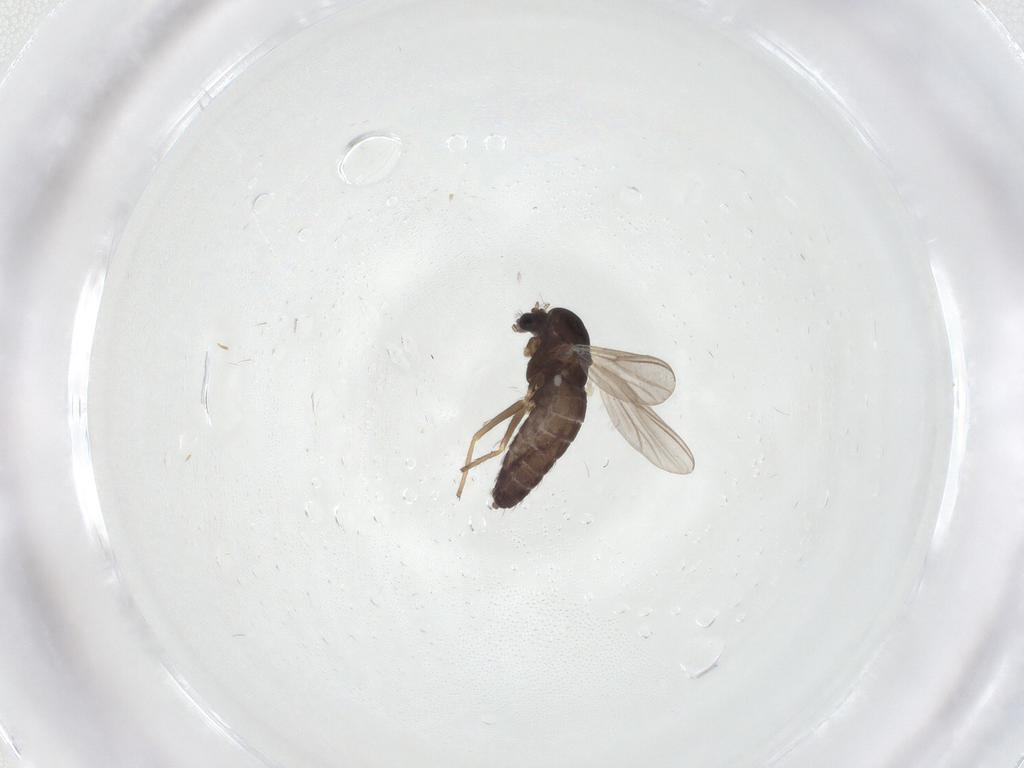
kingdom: Animalia
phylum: Arthropoda
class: Insecta
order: Diptera
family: Chironomidae
